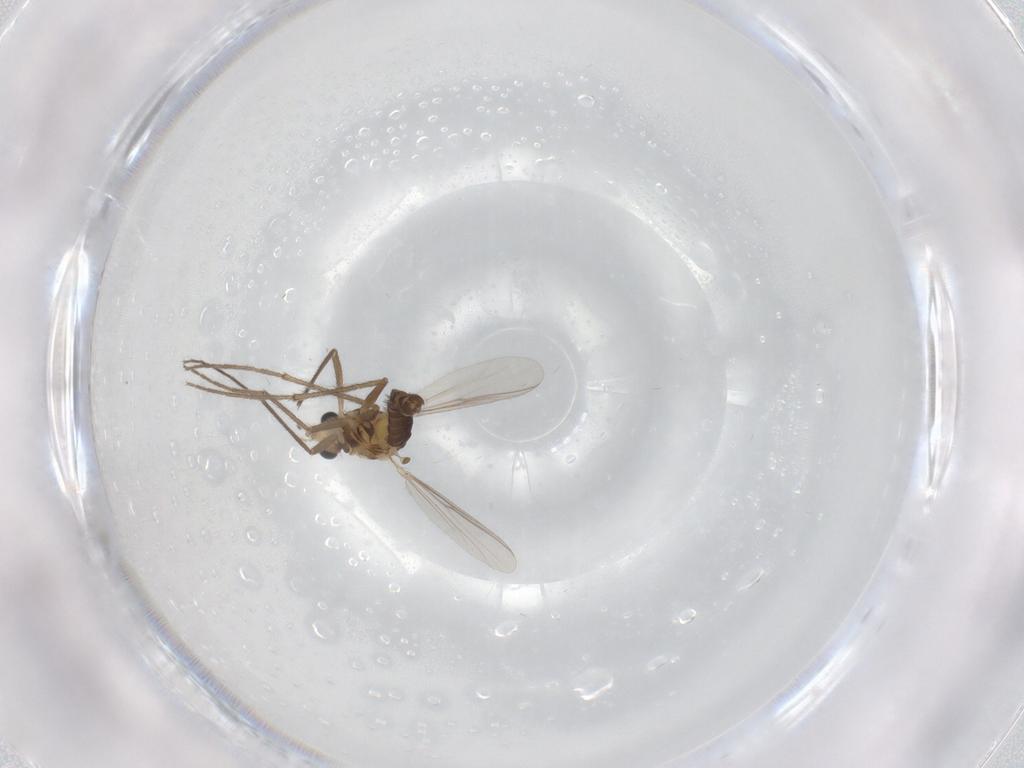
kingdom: Animalia
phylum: Arthropoda
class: Insecta
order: Diptera
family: Chironomidae
